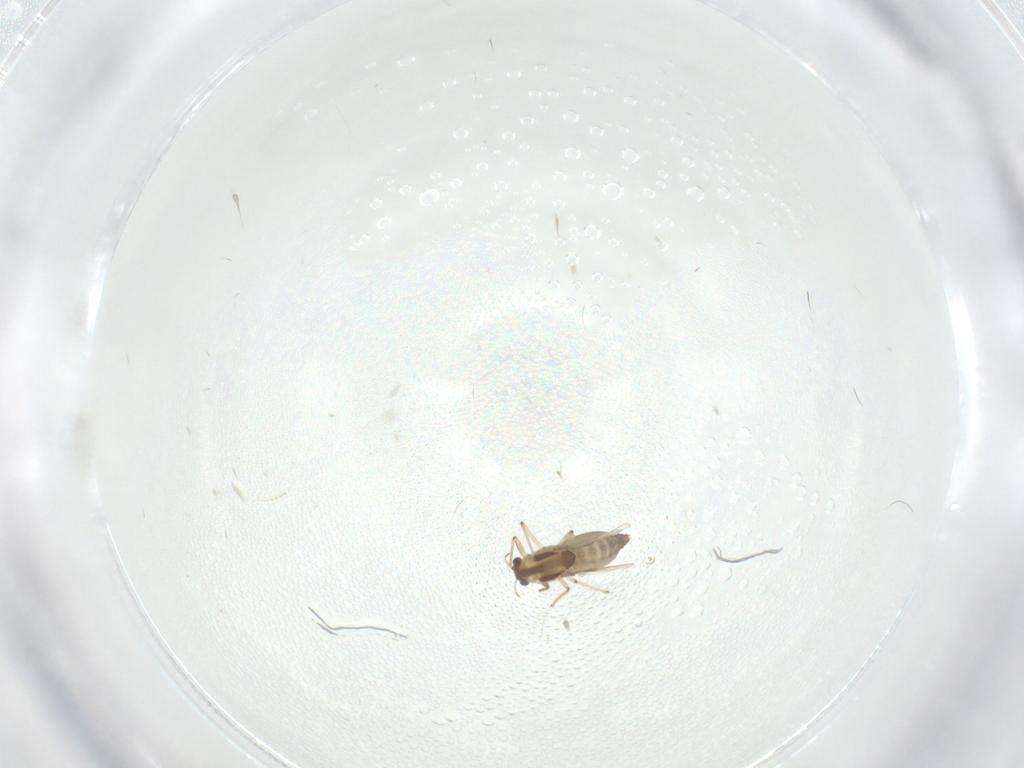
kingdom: Animalia
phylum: Arthropoda
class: Insecta
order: Diptera
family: Chironomidae
